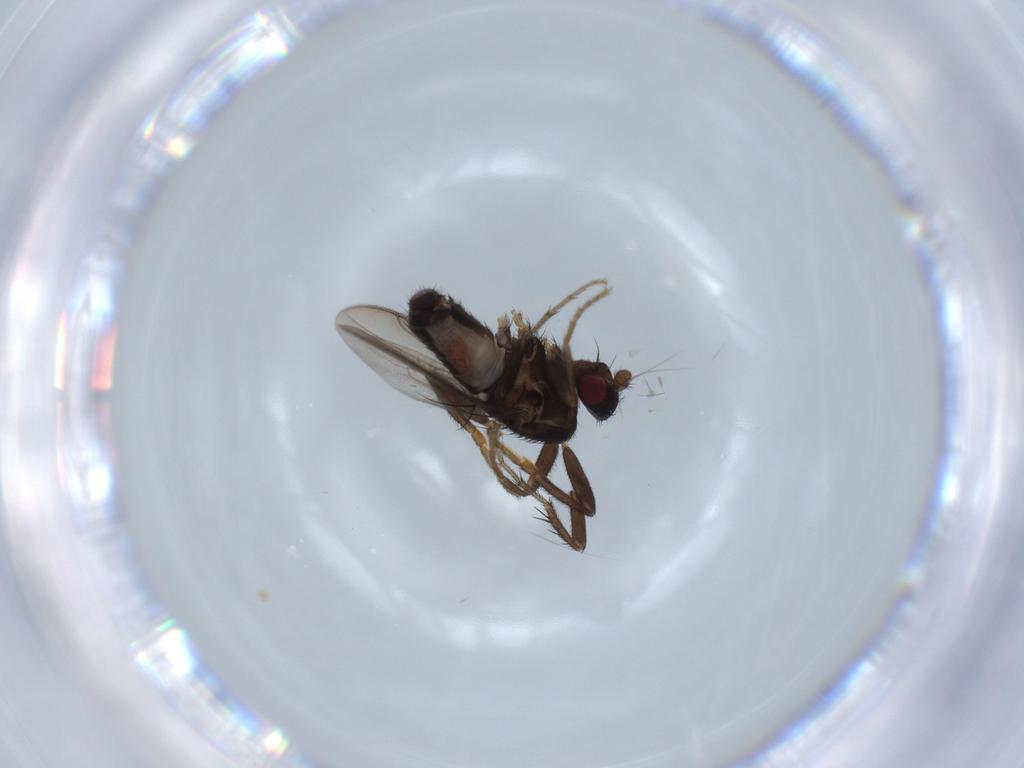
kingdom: Animalia
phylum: Arthropoda
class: Insecta
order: Diptera
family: Sphaeroceridae
